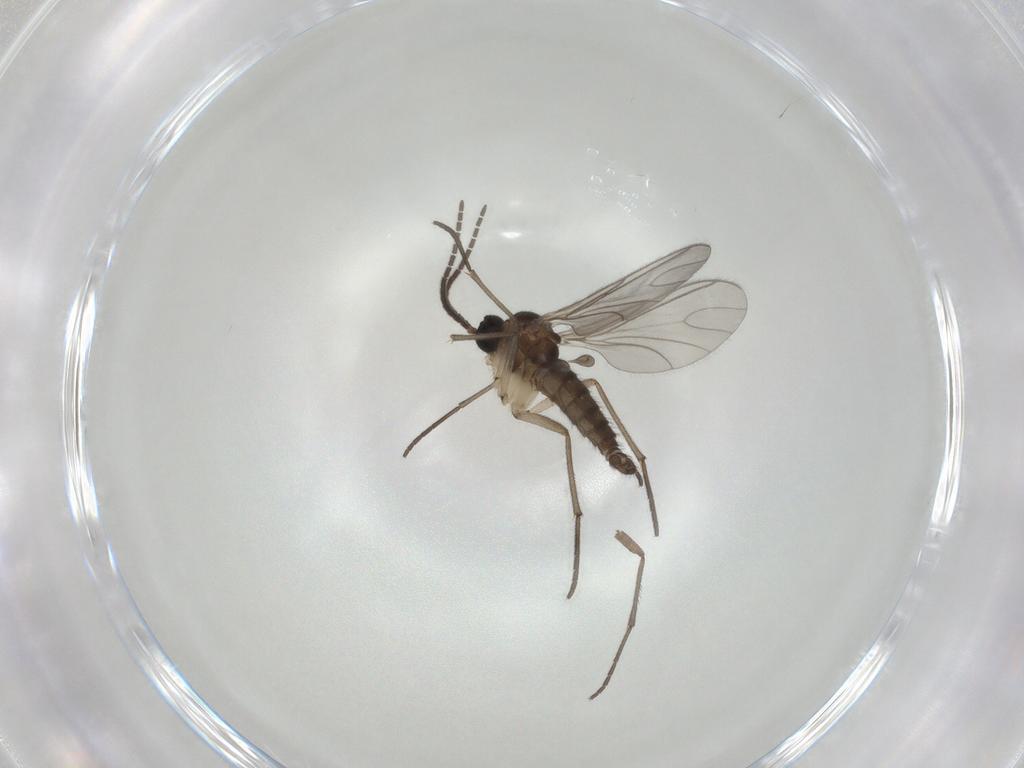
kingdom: Animalia
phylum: Arthropoda
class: Insecta
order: Diptera
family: Sciaridae
